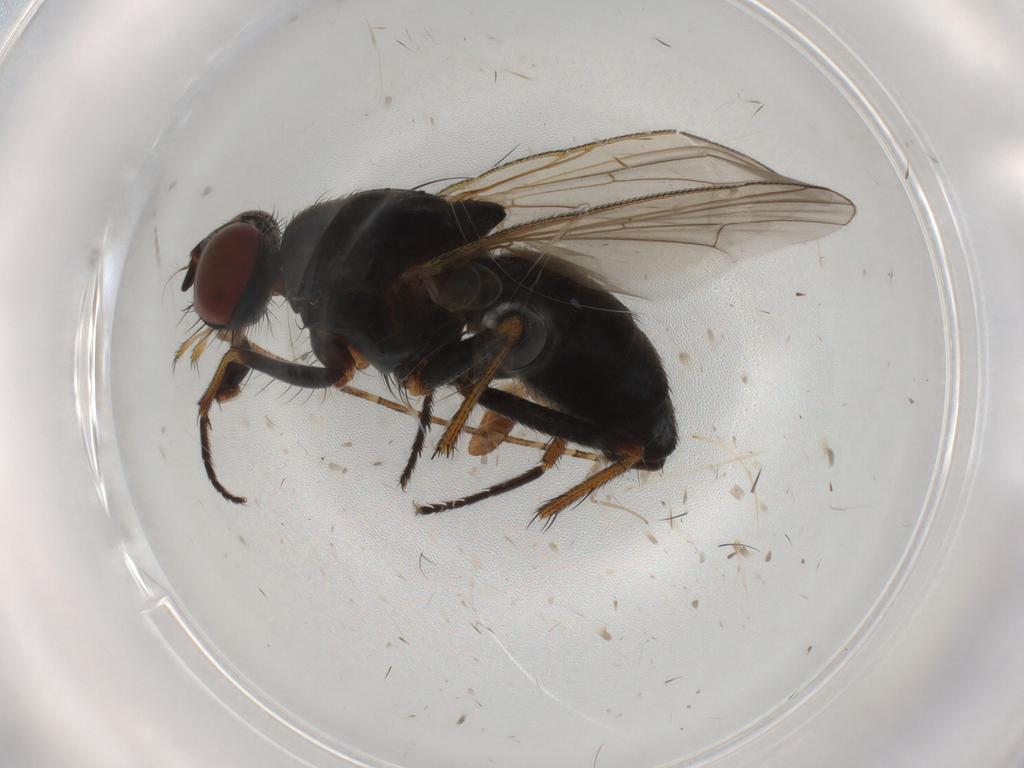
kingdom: Animalia
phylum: Arthropoda
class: Insecta
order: Diptera
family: Muscidae
